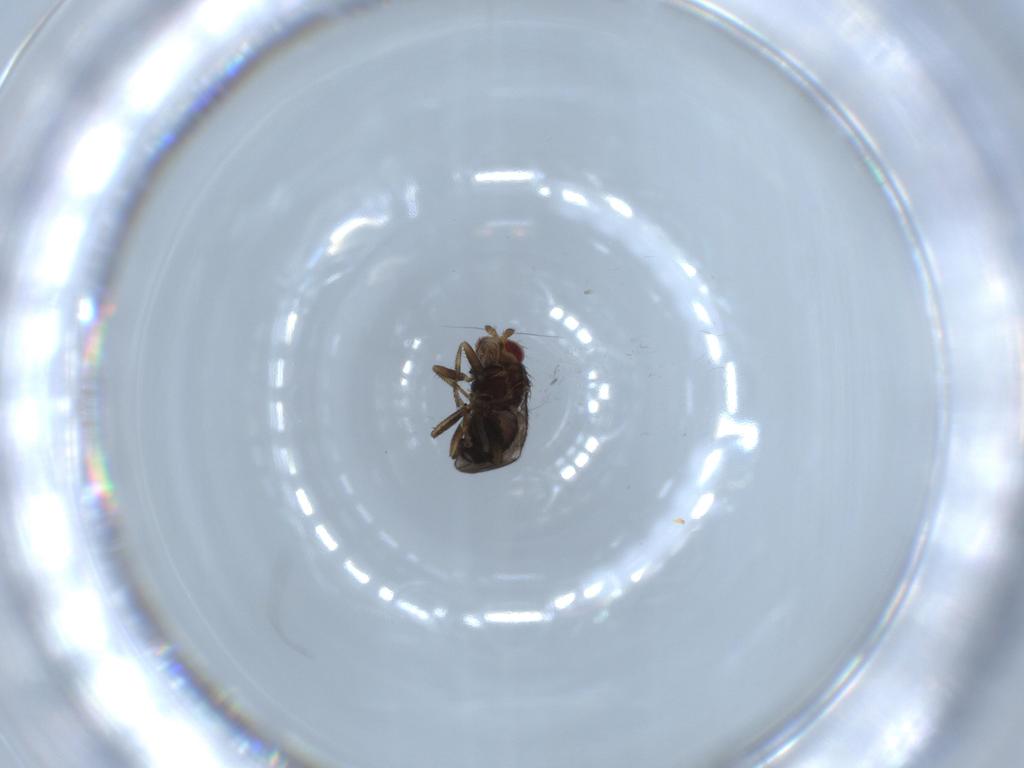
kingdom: Animalia
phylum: Arthropoda
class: Insecta
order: Diptera
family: Sphaeroceridae
